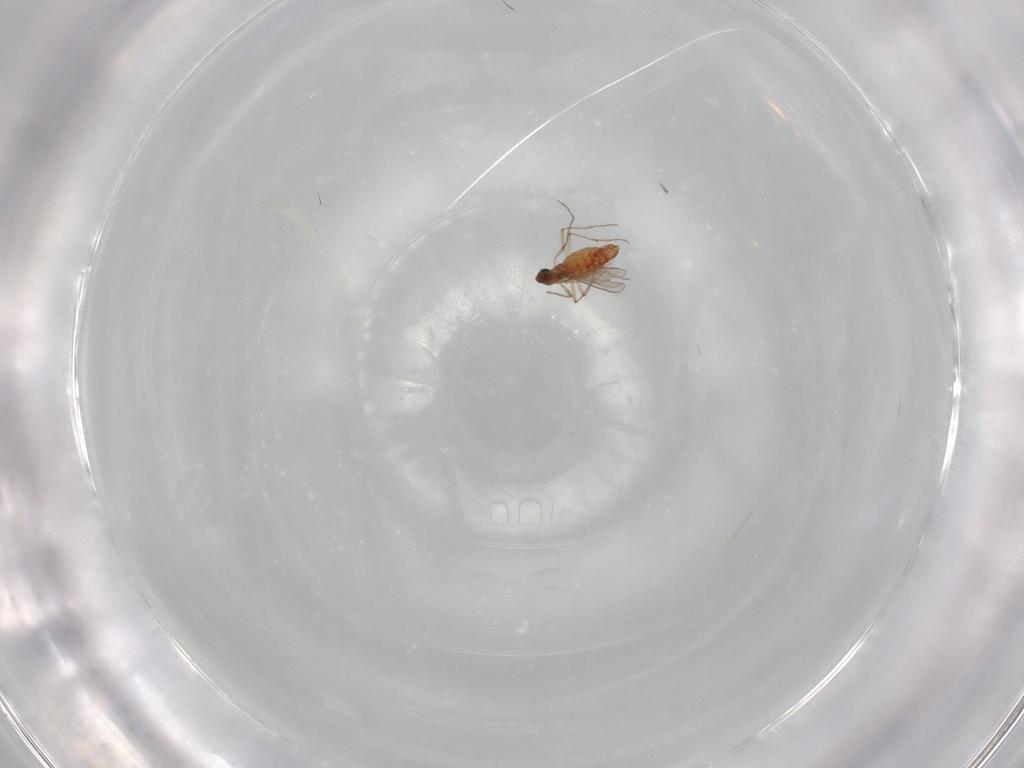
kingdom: Animalia
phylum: Arthropoda
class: Insecta
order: Diptera
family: Chironomidae
